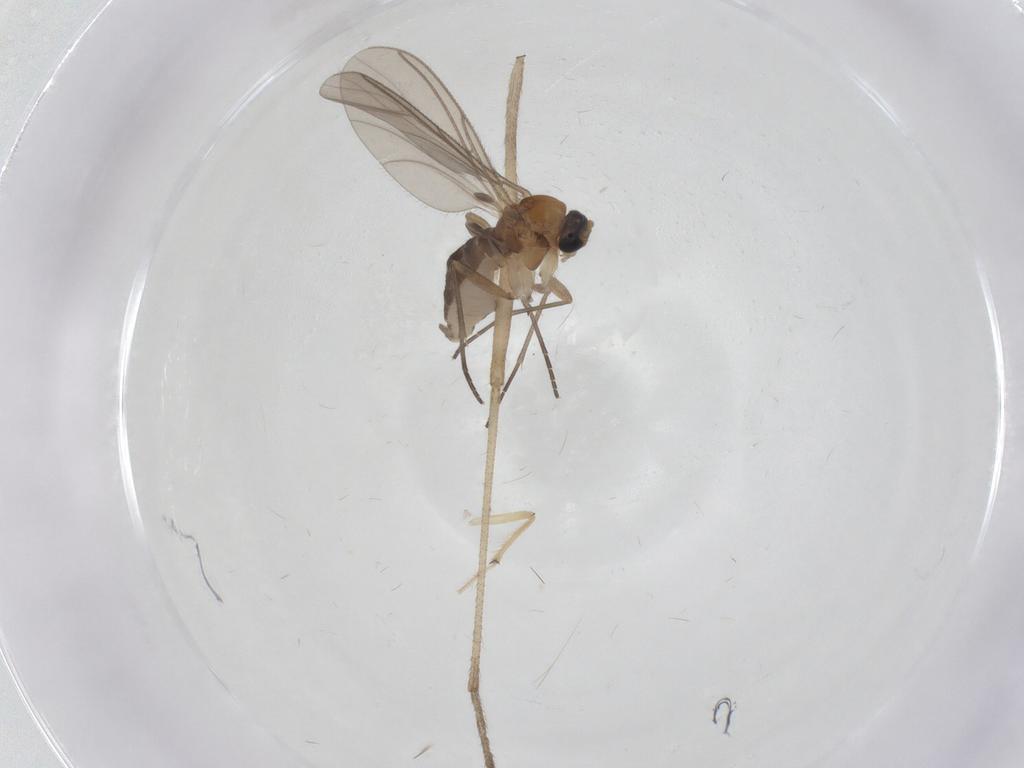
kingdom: Animalia
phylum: Arthropoda
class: Insecta
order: Diptera
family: Sciaridae
